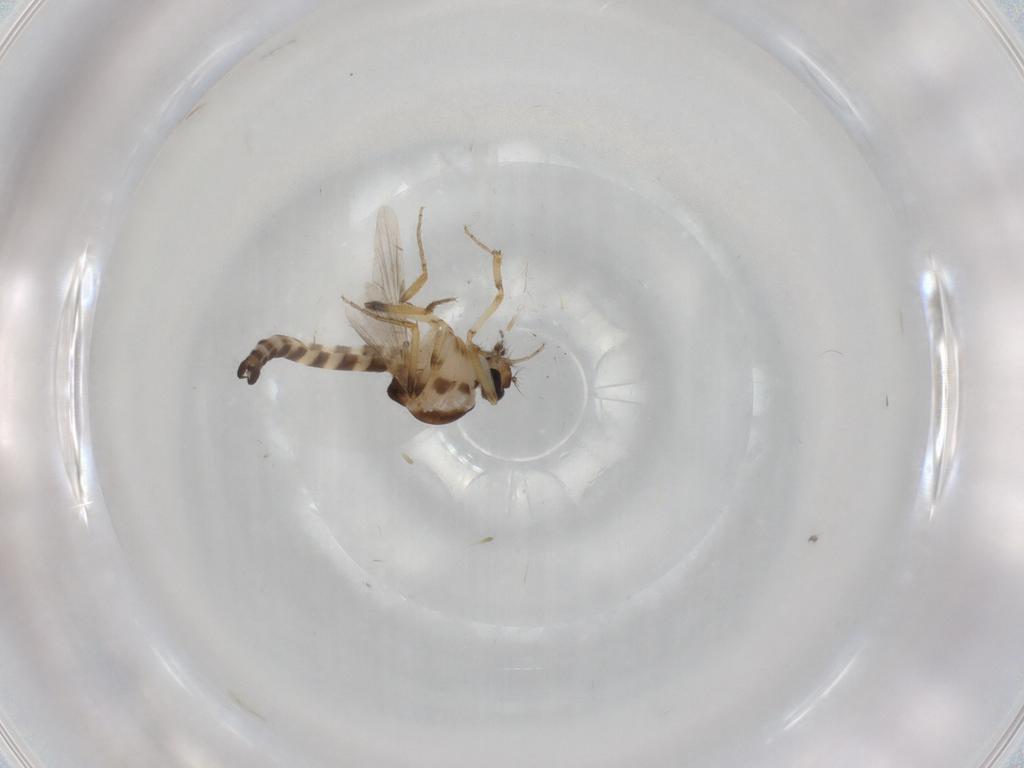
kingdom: Animalia
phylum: Arthropoda
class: Insecta
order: Diptera
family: Ceratopogonidae
